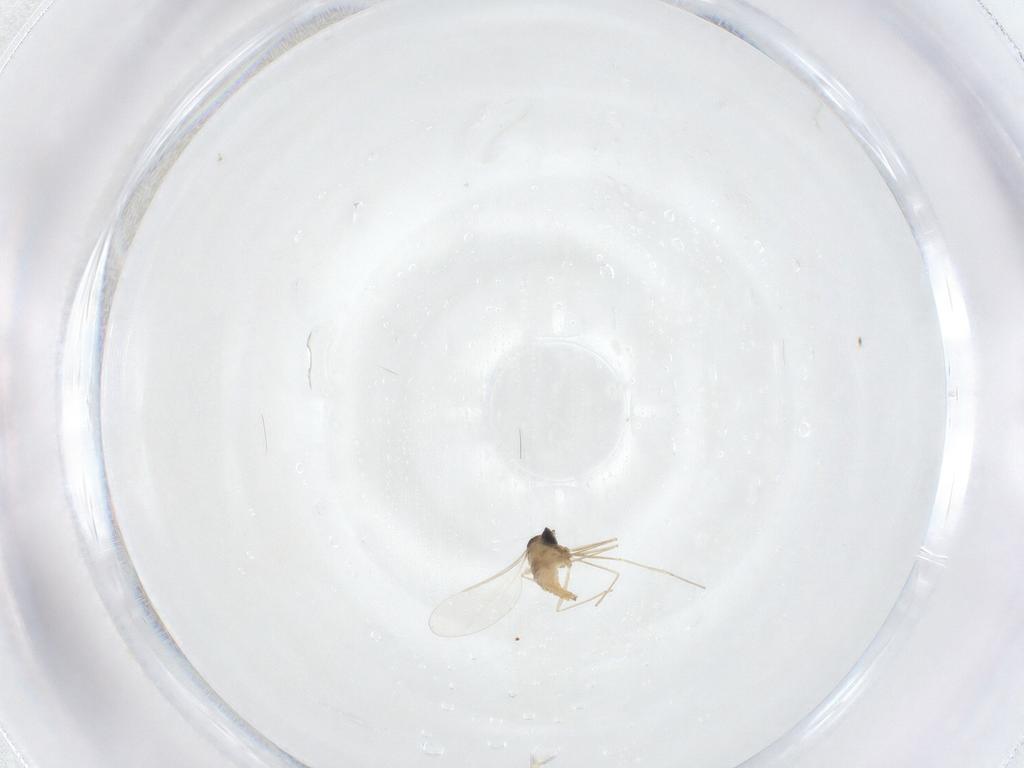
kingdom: Animalia
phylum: Arthropoda
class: Insecta
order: Diptera
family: Cecidomyiidae
